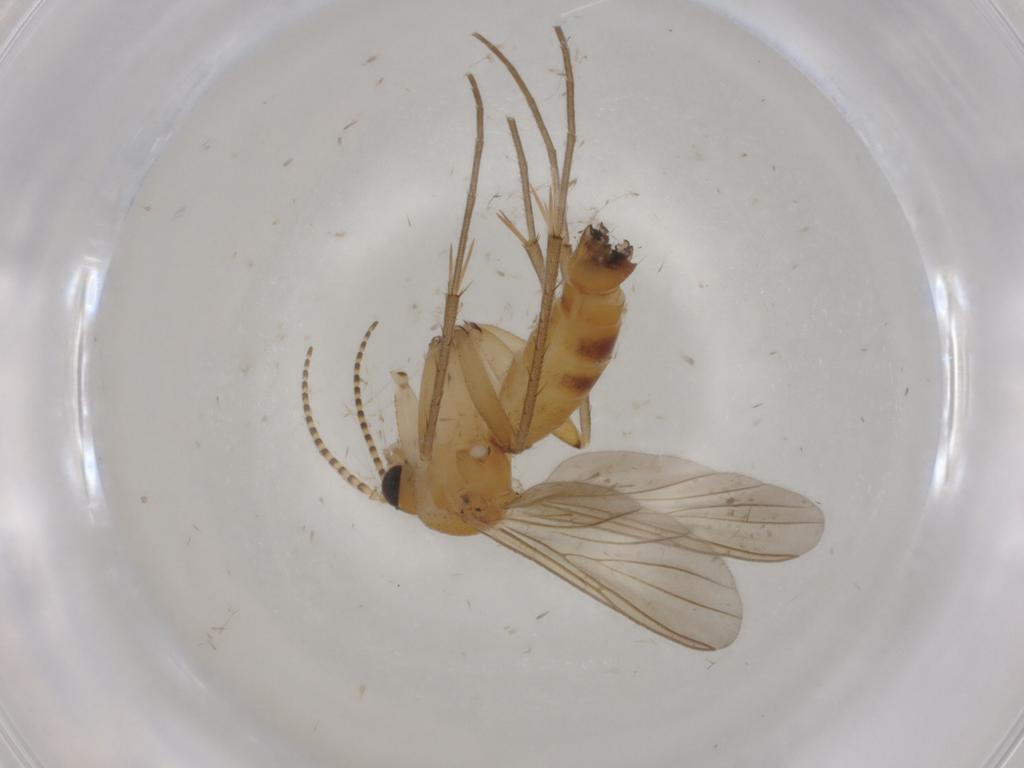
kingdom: Animalia
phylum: Arthropoda
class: Insecta
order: Diptera
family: Mycetophilidae
